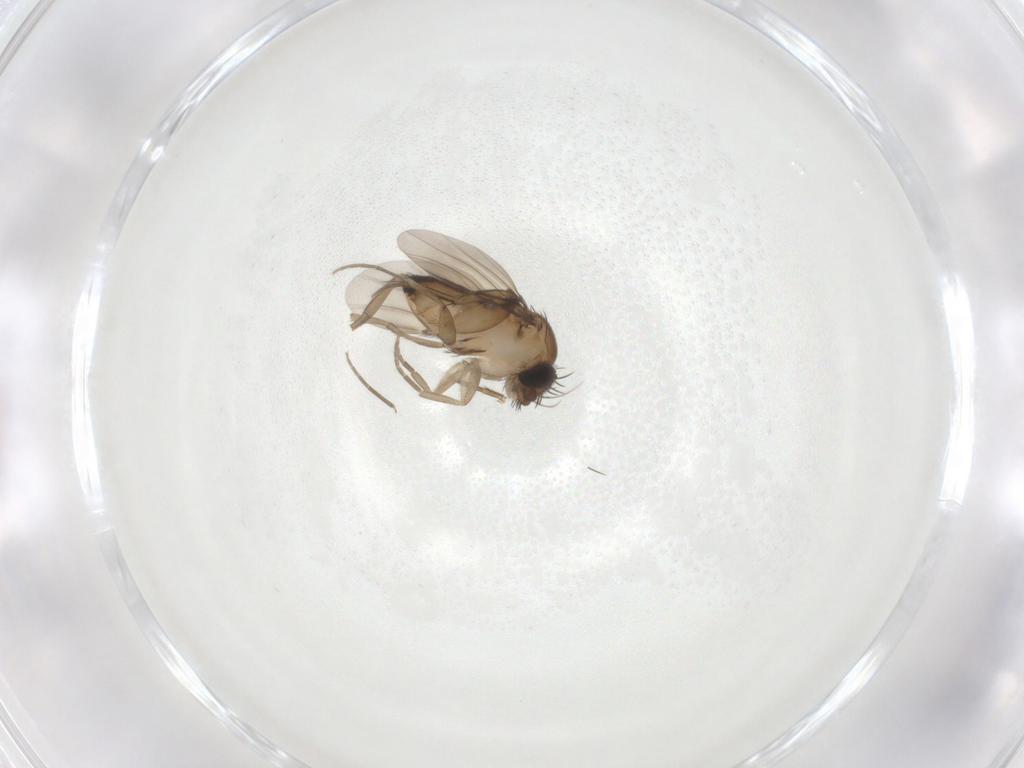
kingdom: Animalia
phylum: Arthropoda
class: Insecta
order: Diptera
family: Phoridae
